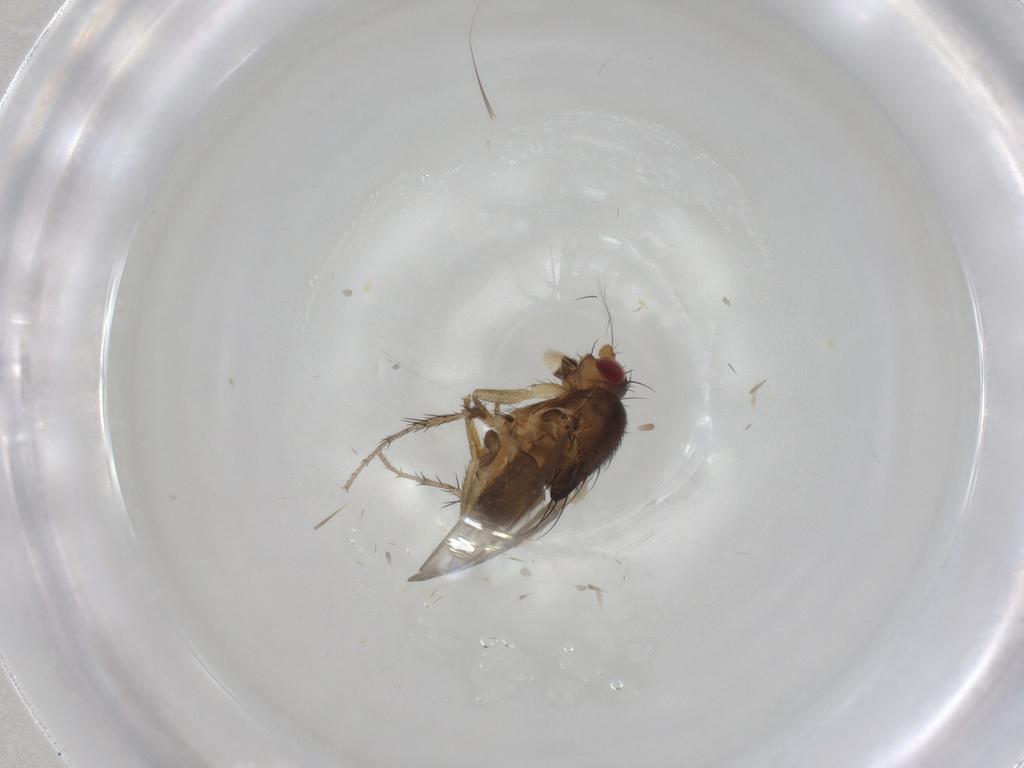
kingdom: Animalia
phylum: Arthropoda
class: Insecta
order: Diptera
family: Sphaeroceridae
